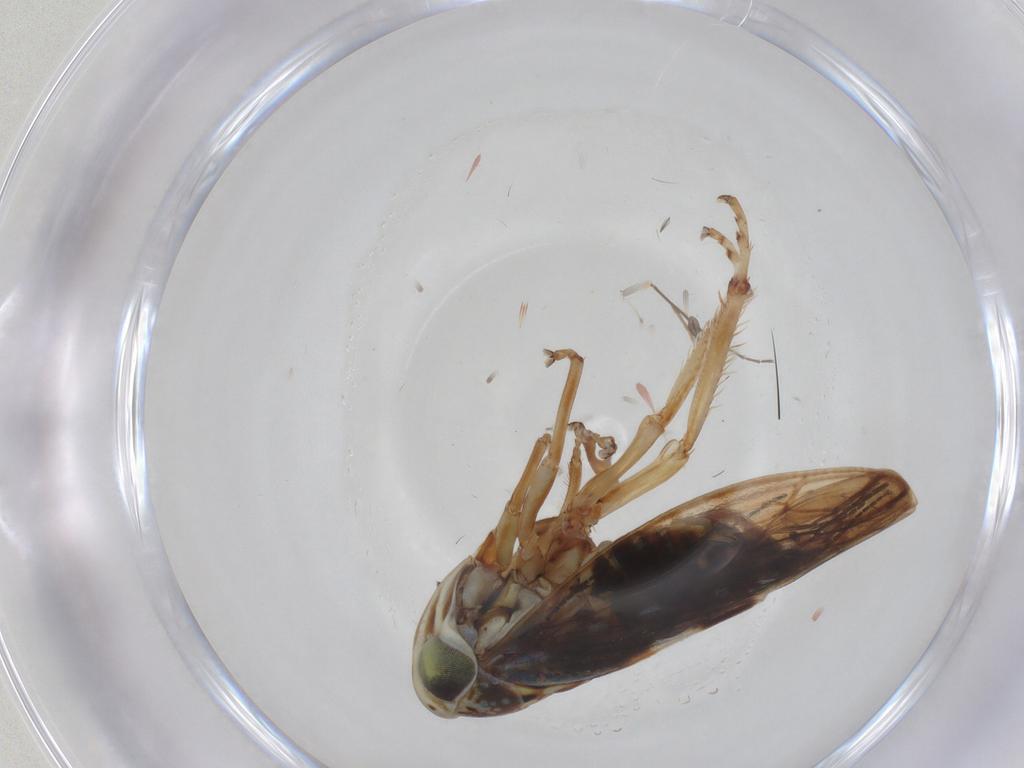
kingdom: Animalia
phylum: Arthropoda
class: Insecta
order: Hemiptera
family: Cicadellidae
